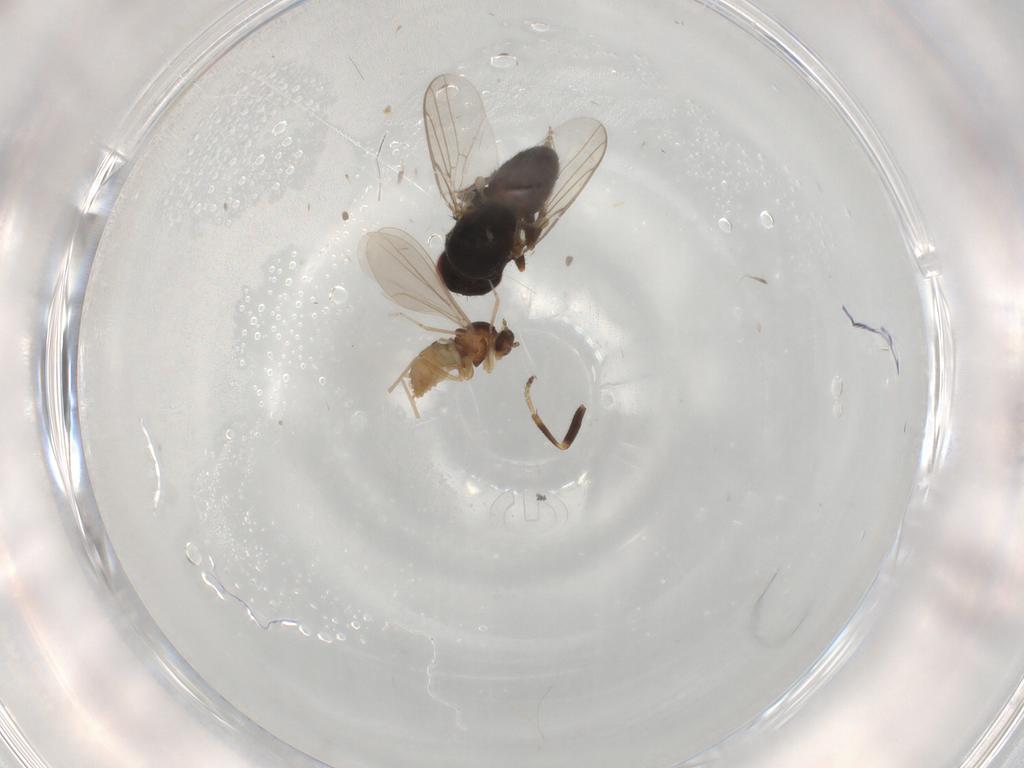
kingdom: Animalia
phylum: Arthropoda
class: Insecta
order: Diptera
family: Chloropidae
